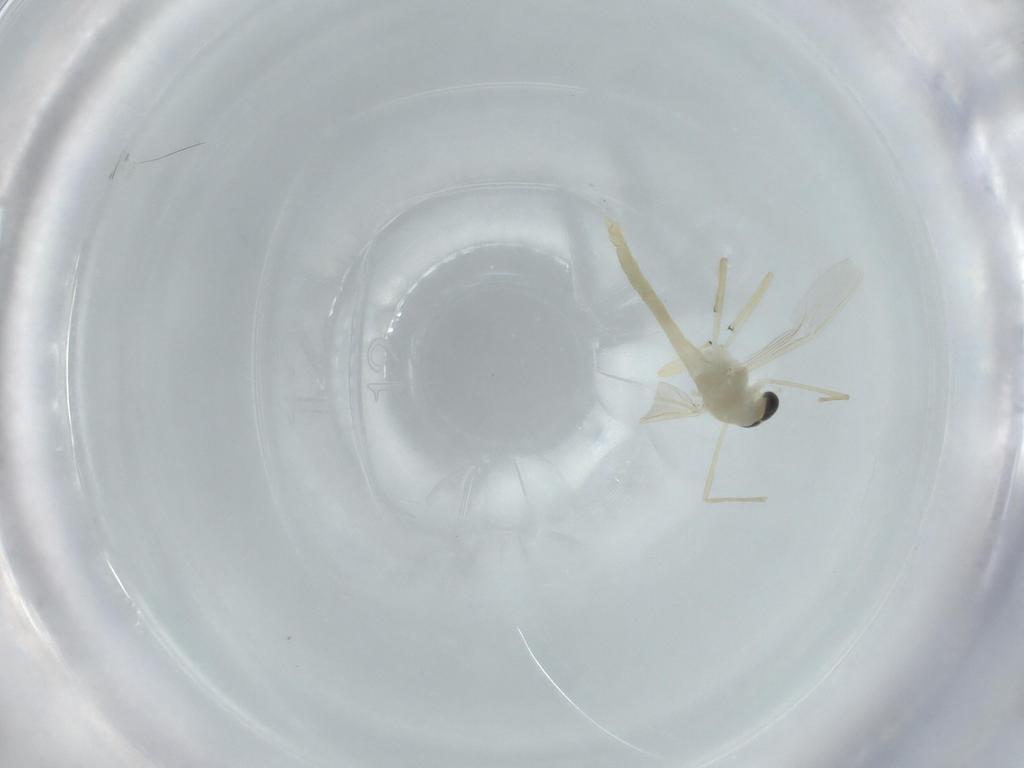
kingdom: Animalia
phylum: Arthropoda
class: Insecta
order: Diptera
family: Chironomidae
